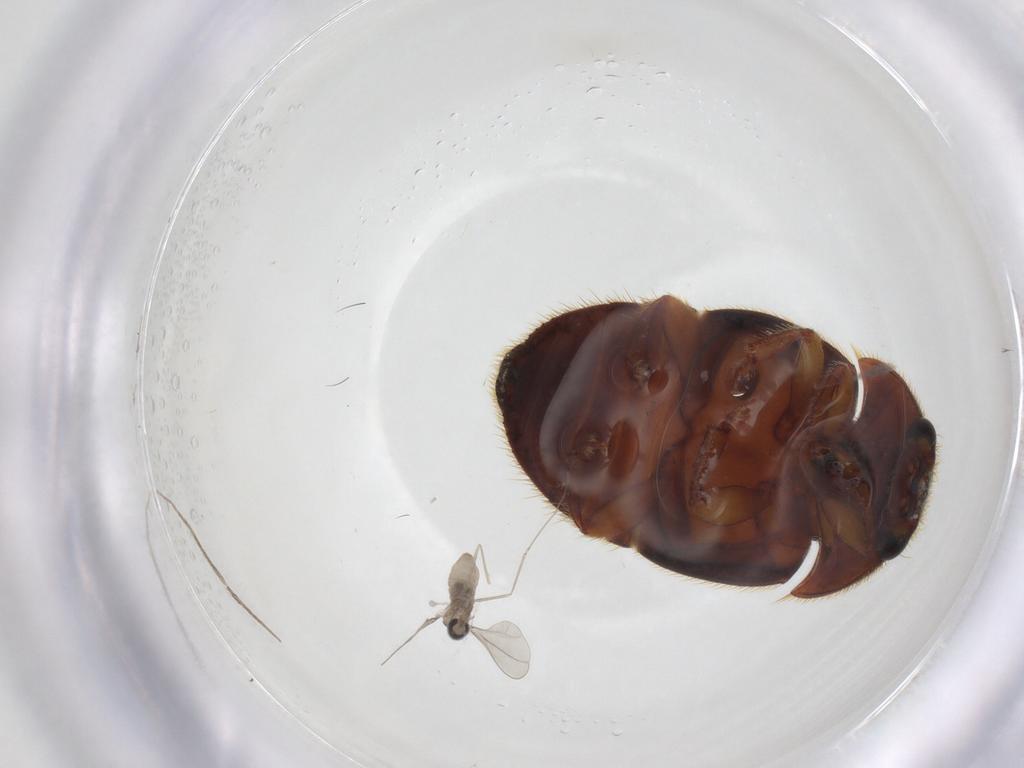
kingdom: Animalia
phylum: Arthropoda
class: Insecta
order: Coleoptera
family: Nitidulidae
